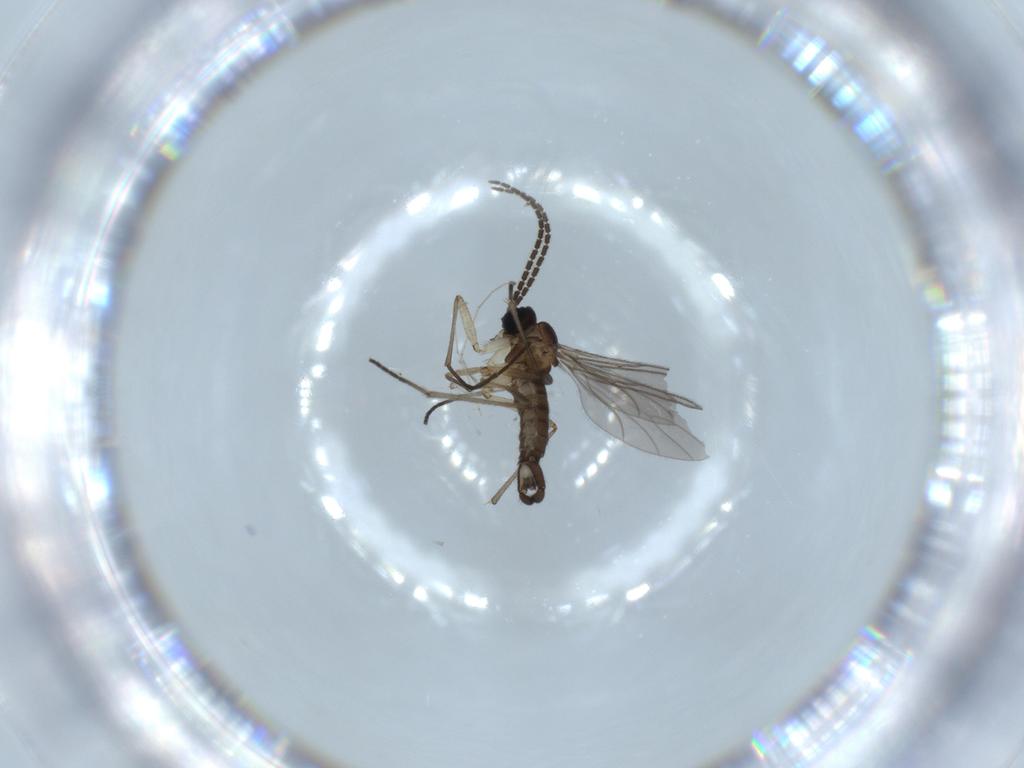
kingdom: Animalia
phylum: Arthropoda
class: Insecta
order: Diptera
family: Sciaridae
